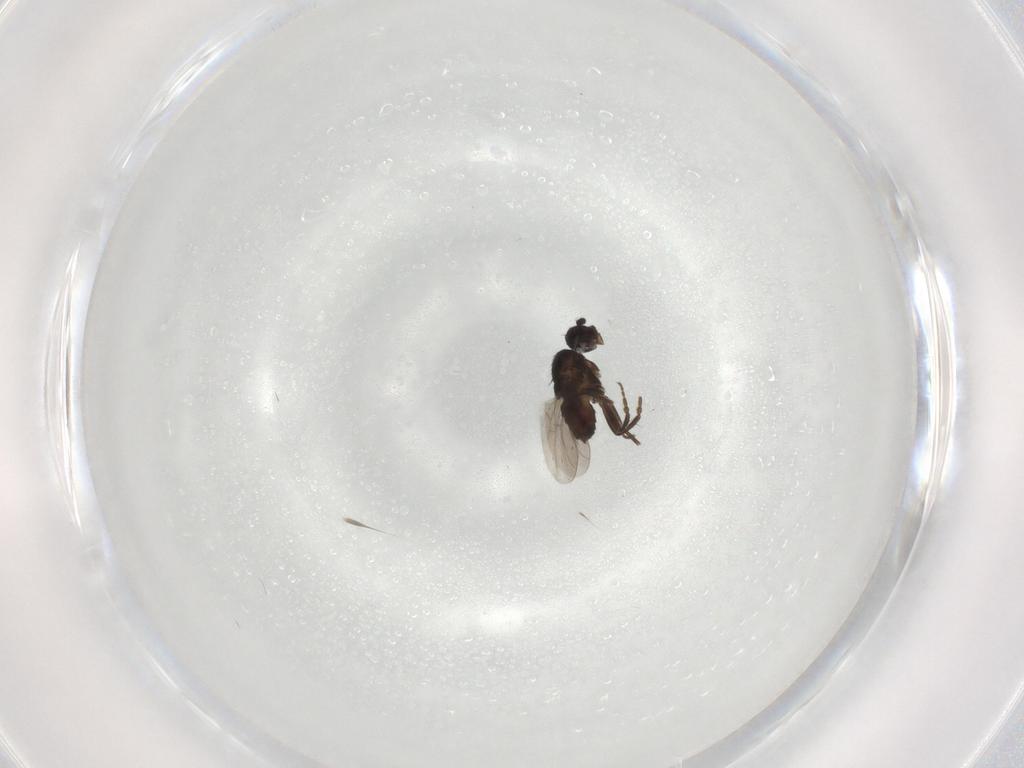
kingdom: Animalia
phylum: Arthropoda
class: Insecta
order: Diptera
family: Sphaeroceridae
